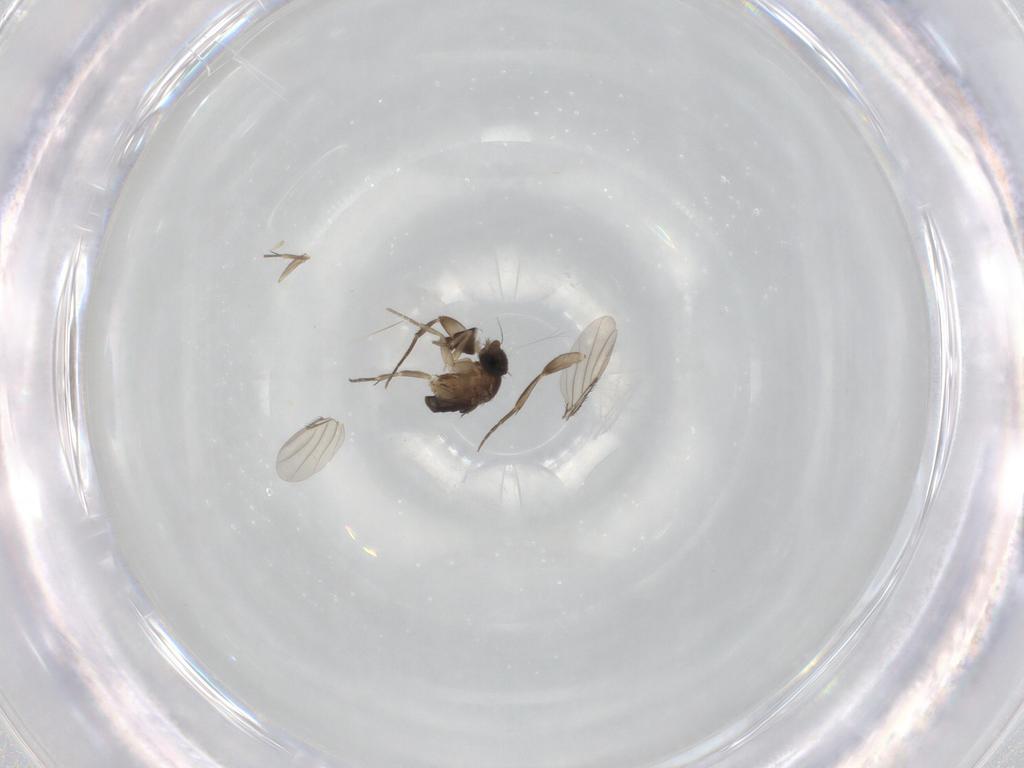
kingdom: Animalia
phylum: Arthropoda
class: Insecta
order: Diptera
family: Phoridae
